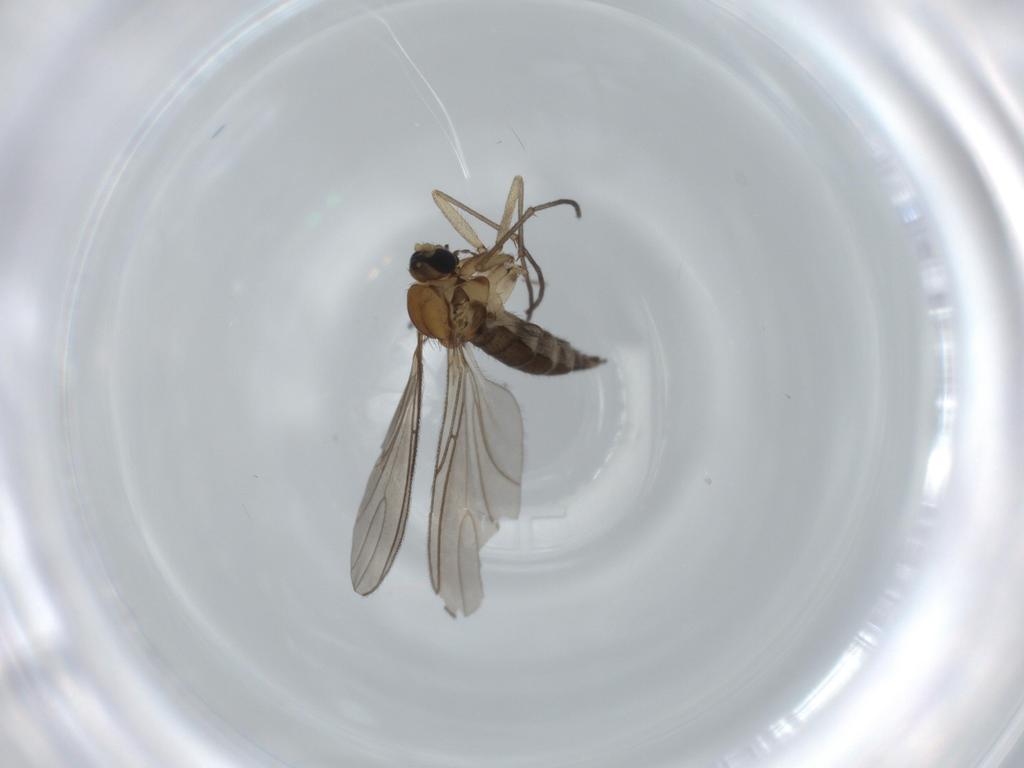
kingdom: Animalia
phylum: Arthropoda
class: Insecta
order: Diptera
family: Sciaridae
